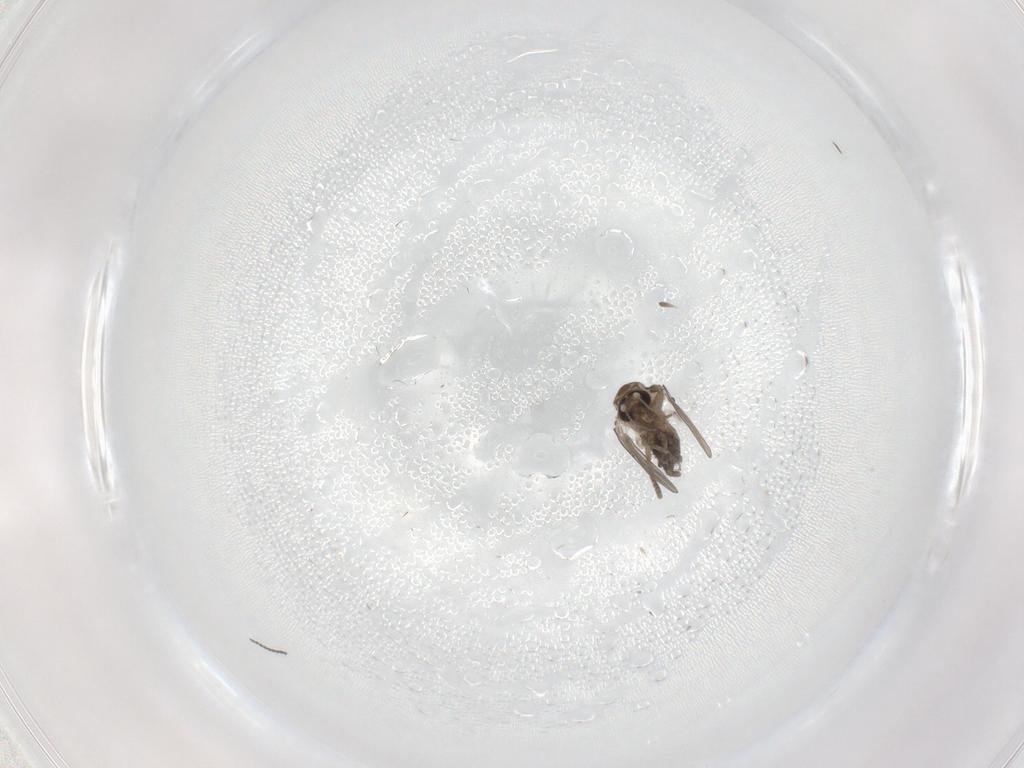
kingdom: Animalia
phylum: Arthropoda
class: Insecta
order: Diptera
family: Psychodidae
